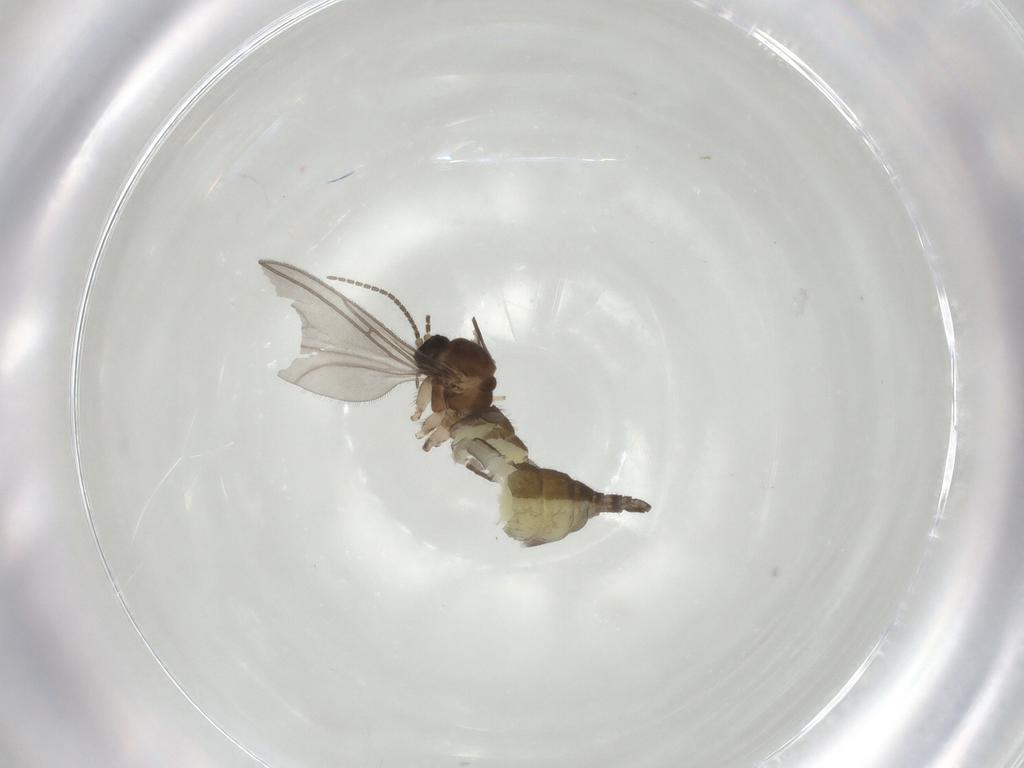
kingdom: Animalia
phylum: Arthropoda
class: Insecta
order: Diptera
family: Sciaridae
